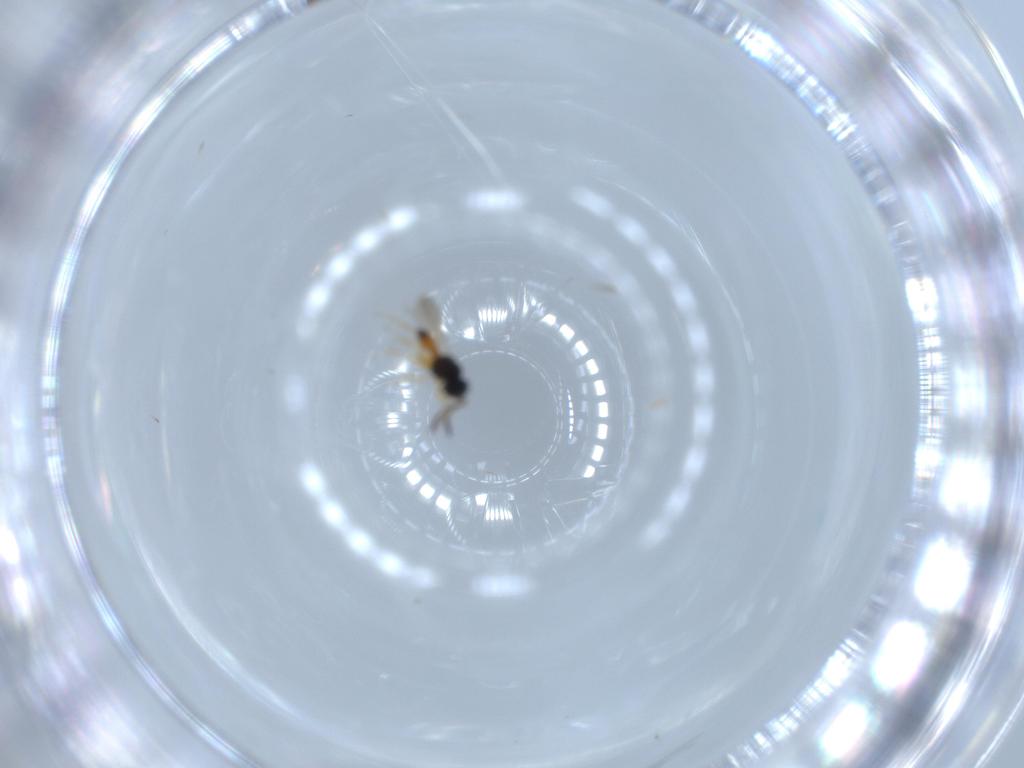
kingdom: Animalia
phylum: Arthropoda
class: Insecta
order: Hymenoptera
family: Scelionidae
